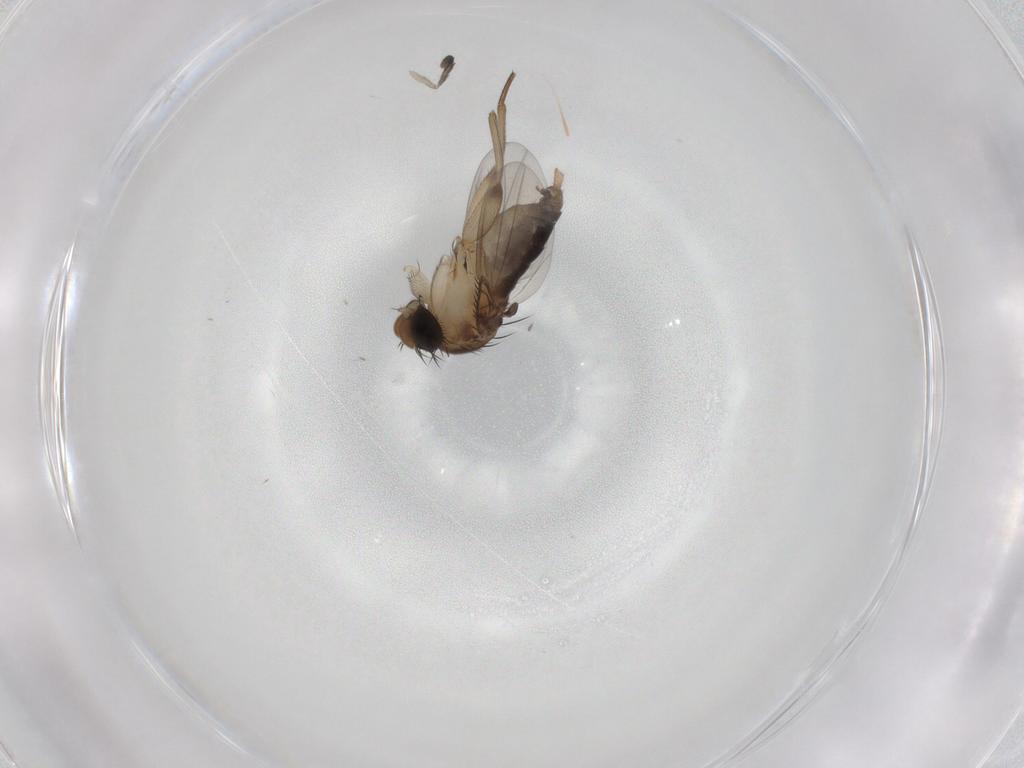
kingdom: Animalia
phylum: Arthropoda
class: Insecta
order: Diptera
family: Phoridae
